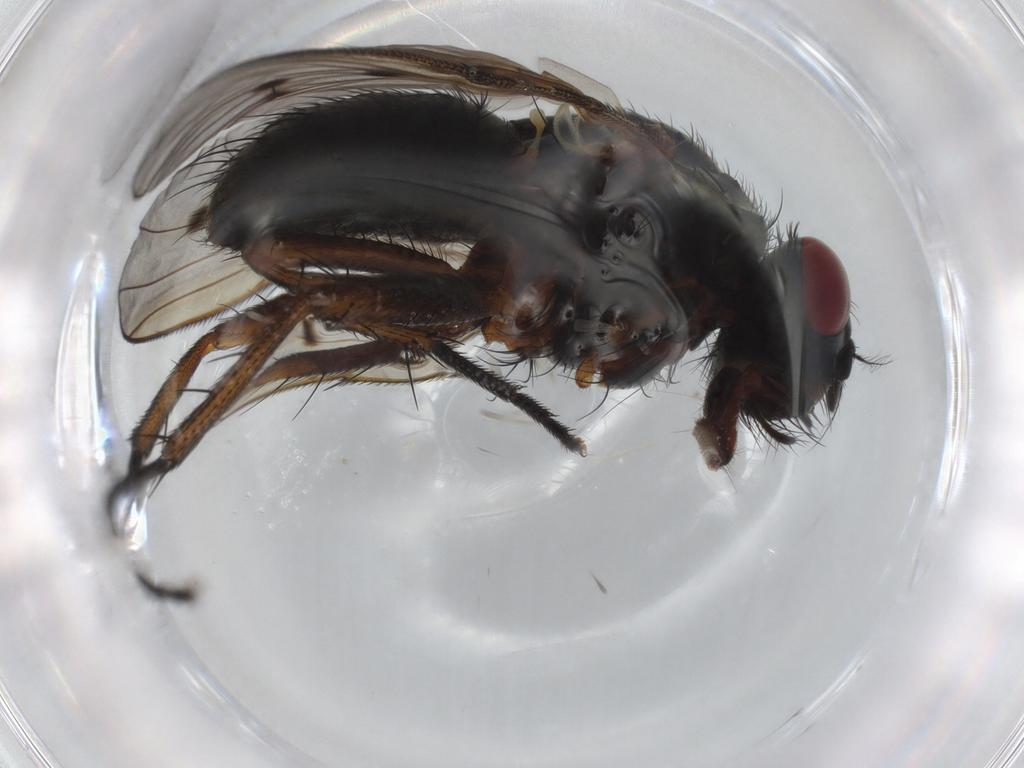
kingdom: Animalia
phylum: Arthropoda
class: Insecta
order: Diptera
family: Muscidae
